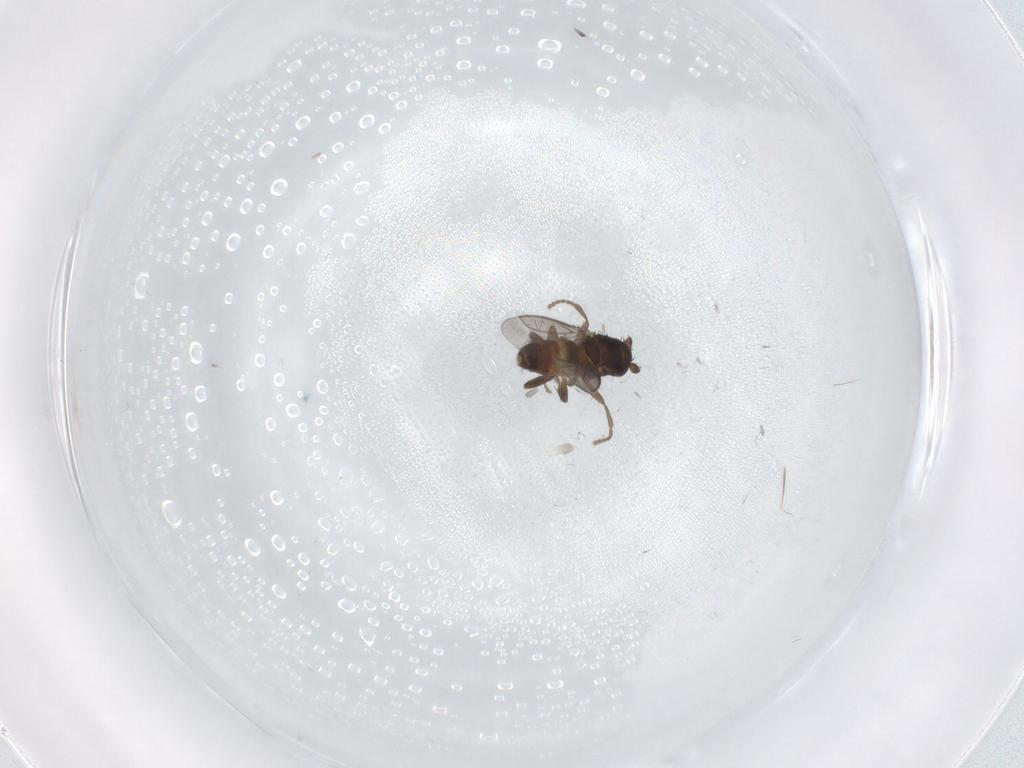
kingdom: Animalia
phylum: Arthropoda
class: Insecta
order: Diptera
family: Sphaeroceridae
